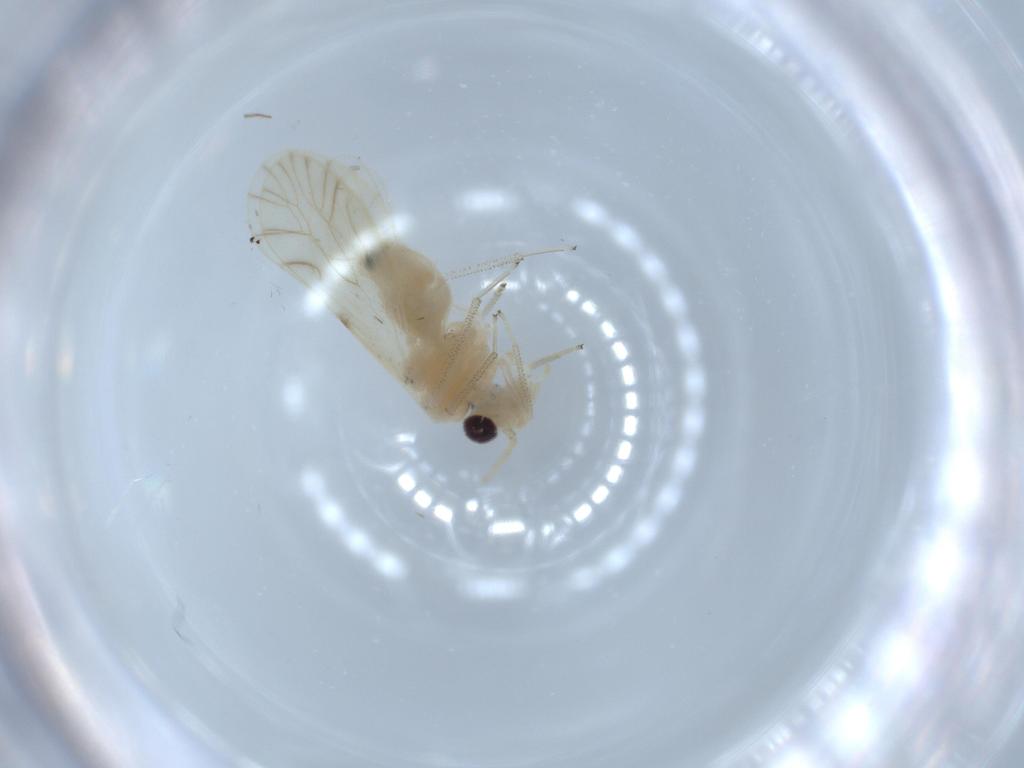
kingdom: Animalia
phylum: Arthropoda
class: Insecta
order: Psocodea
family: Caeciliusidae
